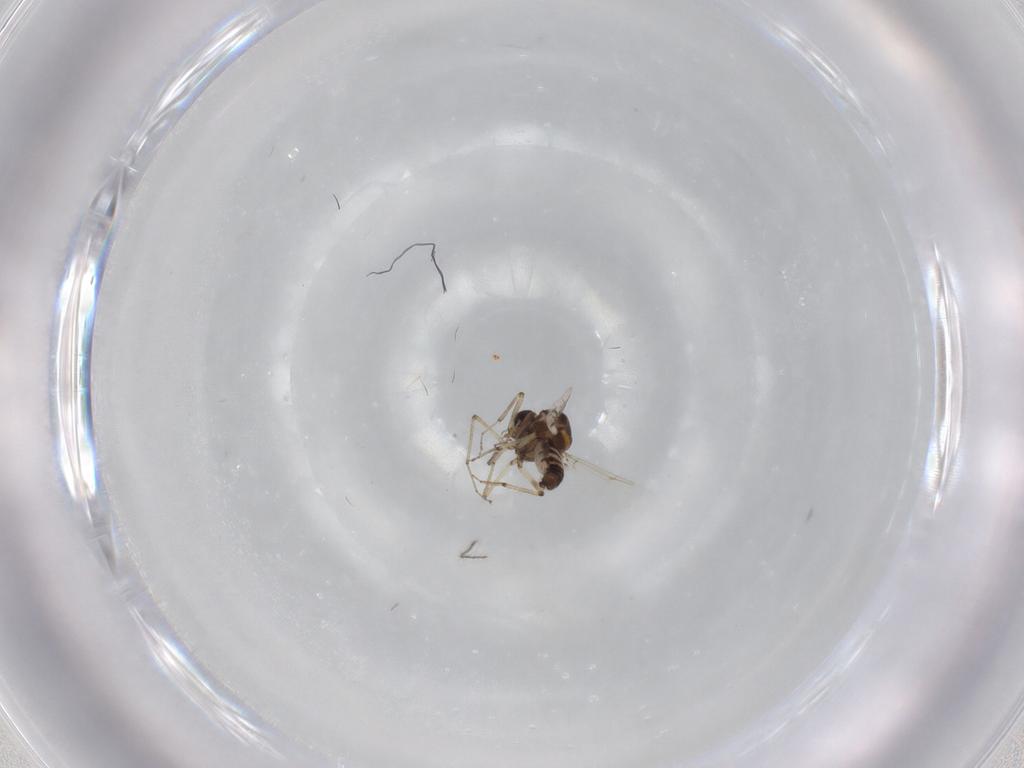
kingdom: Animalia
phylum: Arthropoda
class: Insecta
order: Diptera
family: Ceratopogonidae
